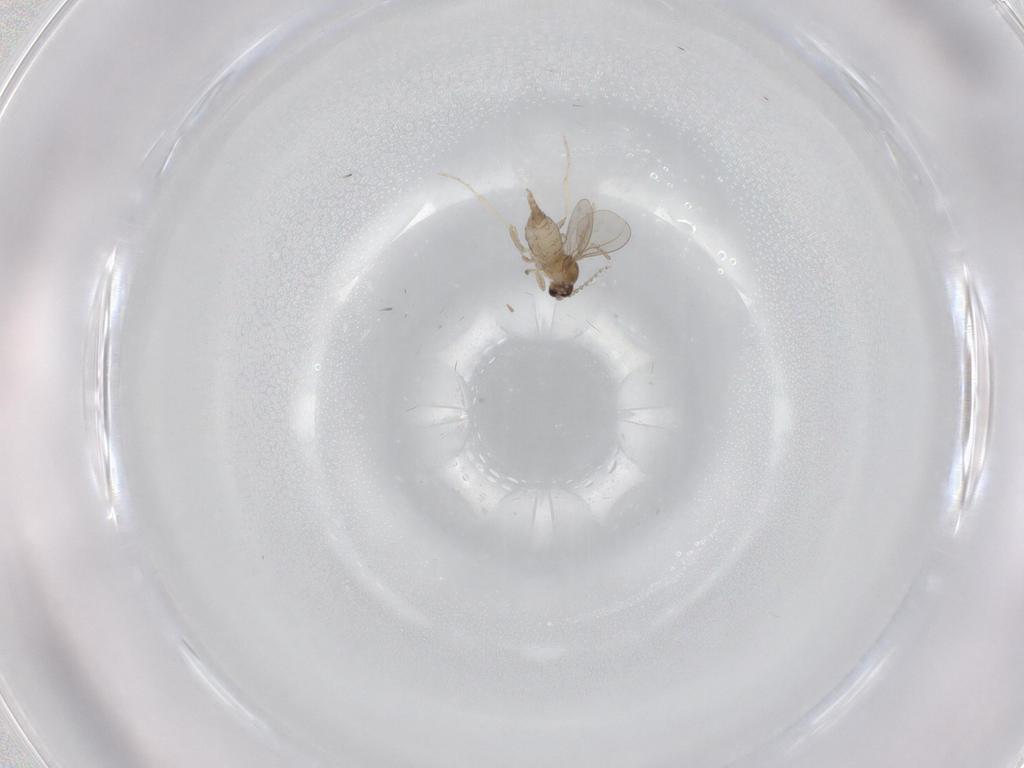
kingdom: Animalia
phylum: Arthropoda
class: Insecta
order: Diptera
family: Cecidomyiidae
